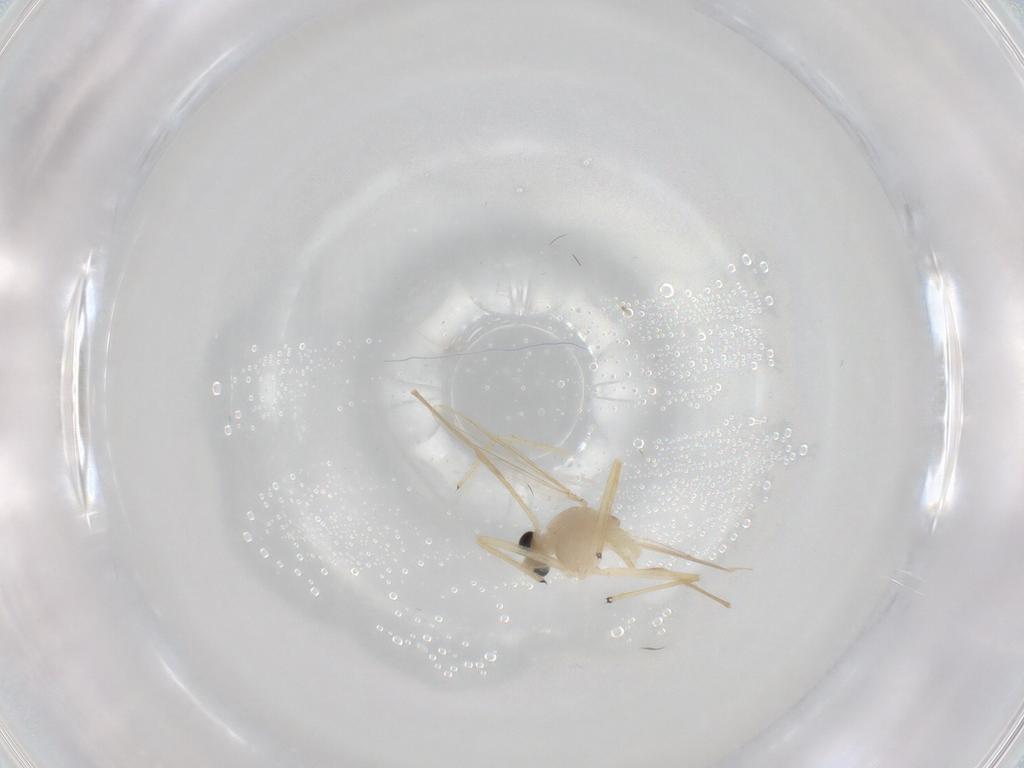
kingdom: Animalia
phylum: Arthropoda
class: Insecta
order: Diptera
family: Chironomidae
